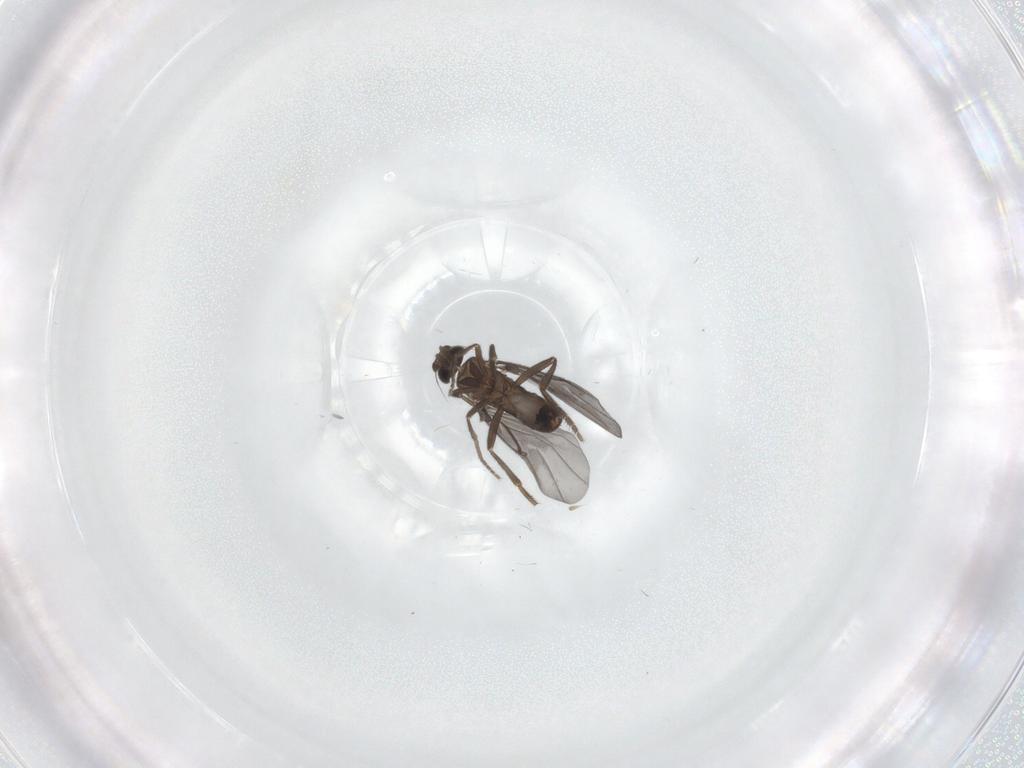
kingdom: Animalia
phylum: Arthropoda
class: Insecta
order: Diptera
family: Phoridae
